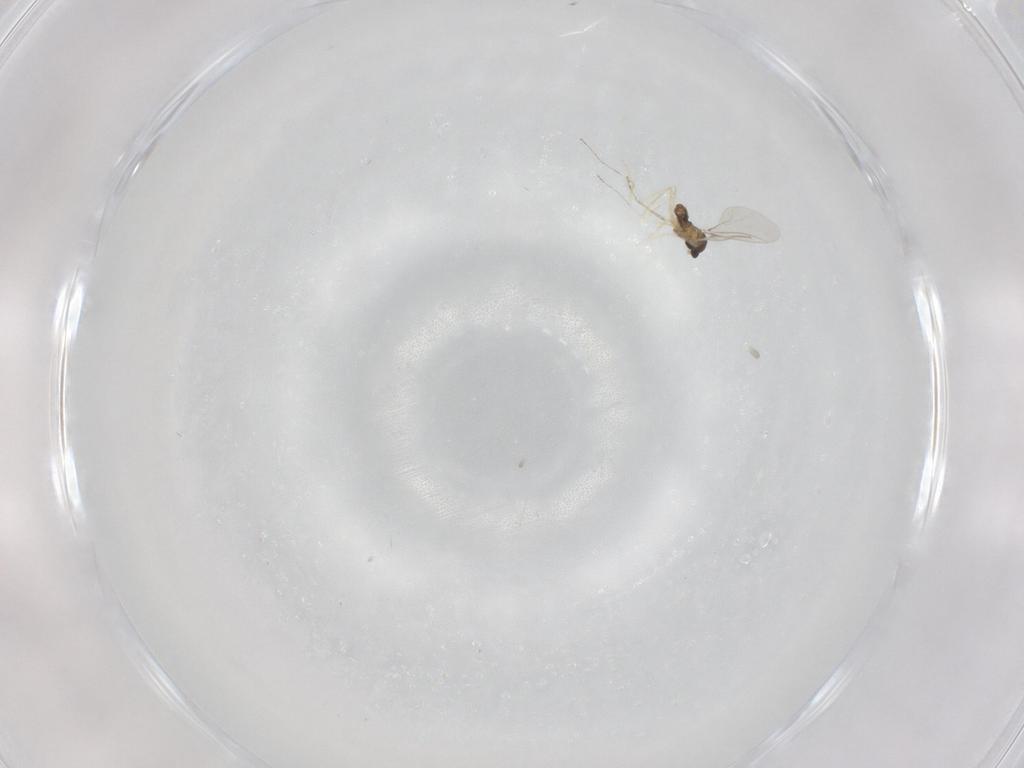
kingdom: Animalia
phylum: Arthropoda
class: Insecta
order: Diptera
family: Cecidomyiidae
